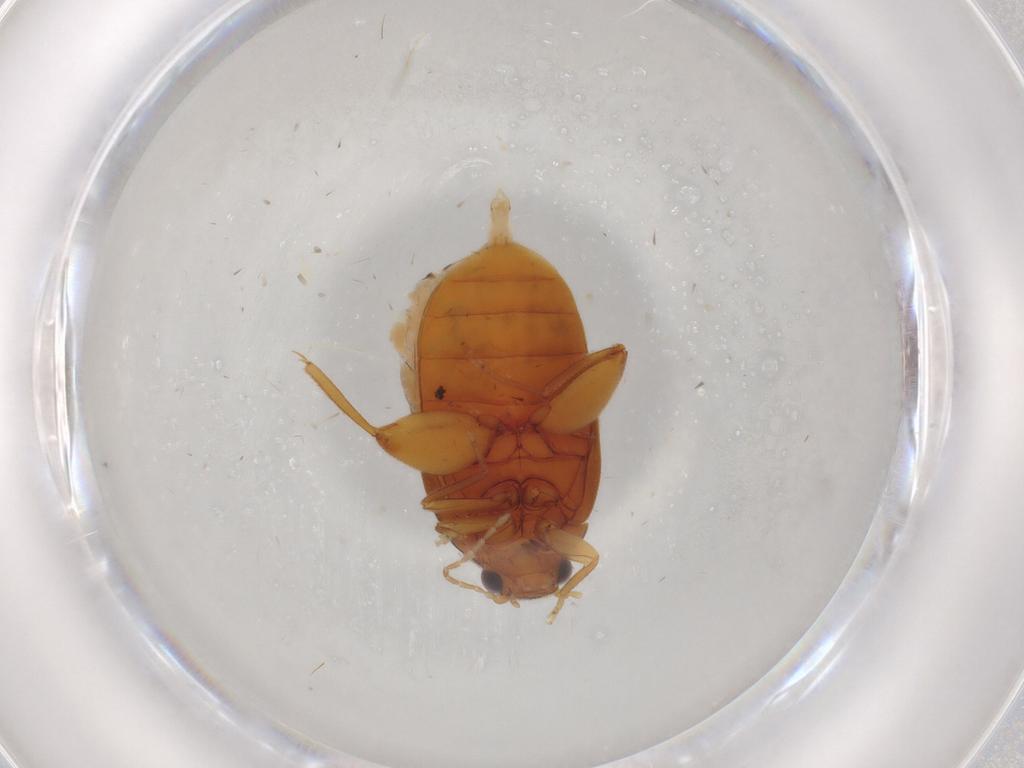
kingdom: Animalia
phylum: Arthropoda
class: Insecta
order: Coleoptera
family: Scirtidae
